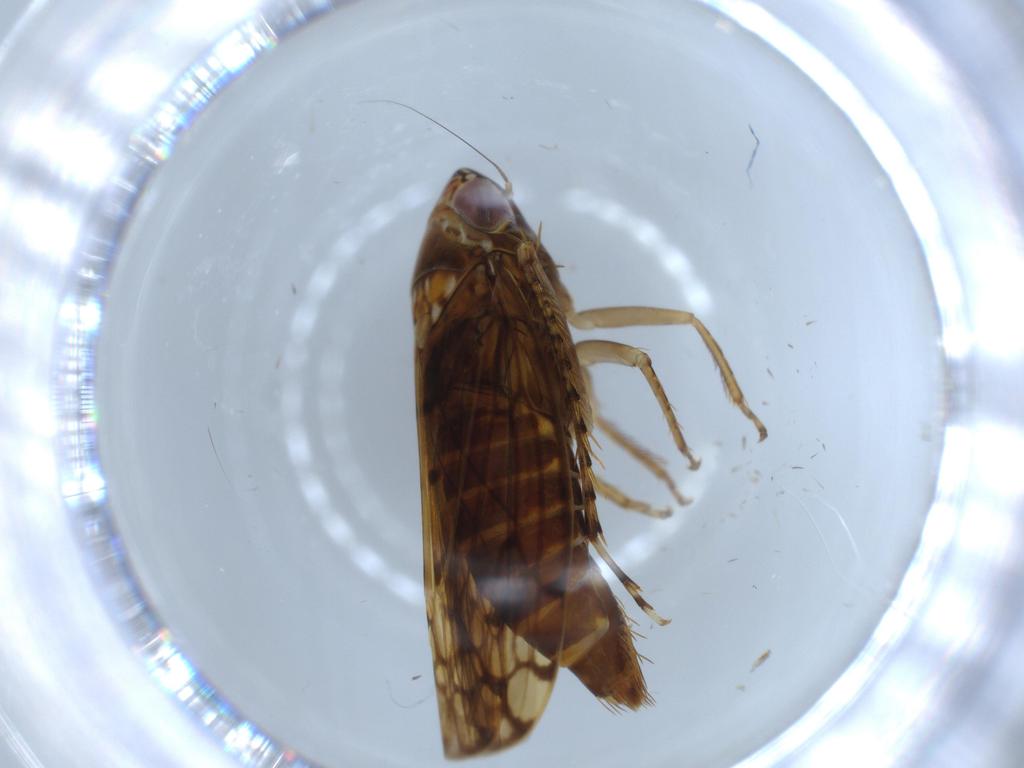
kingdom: Animalia
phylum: Arthropoda
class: Insecta
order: Hemiptera
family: Cicadellidae
